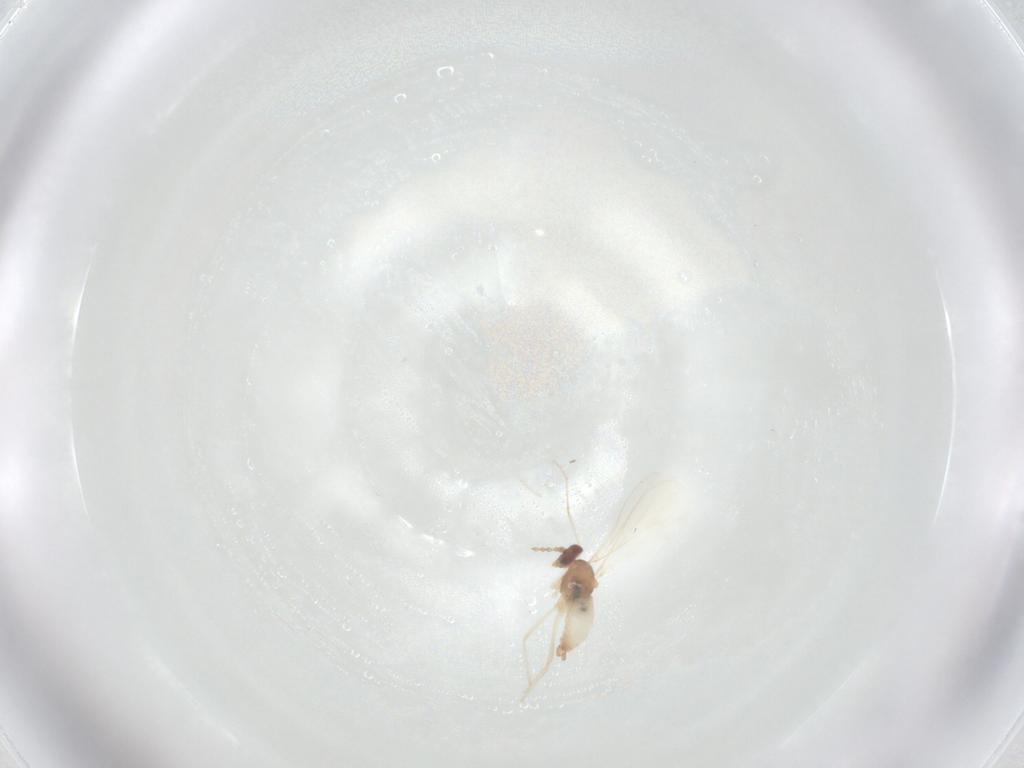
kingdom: Animalia
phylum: Arthropoda
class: Insecta
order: Diptera
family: Cecidomyiidae
